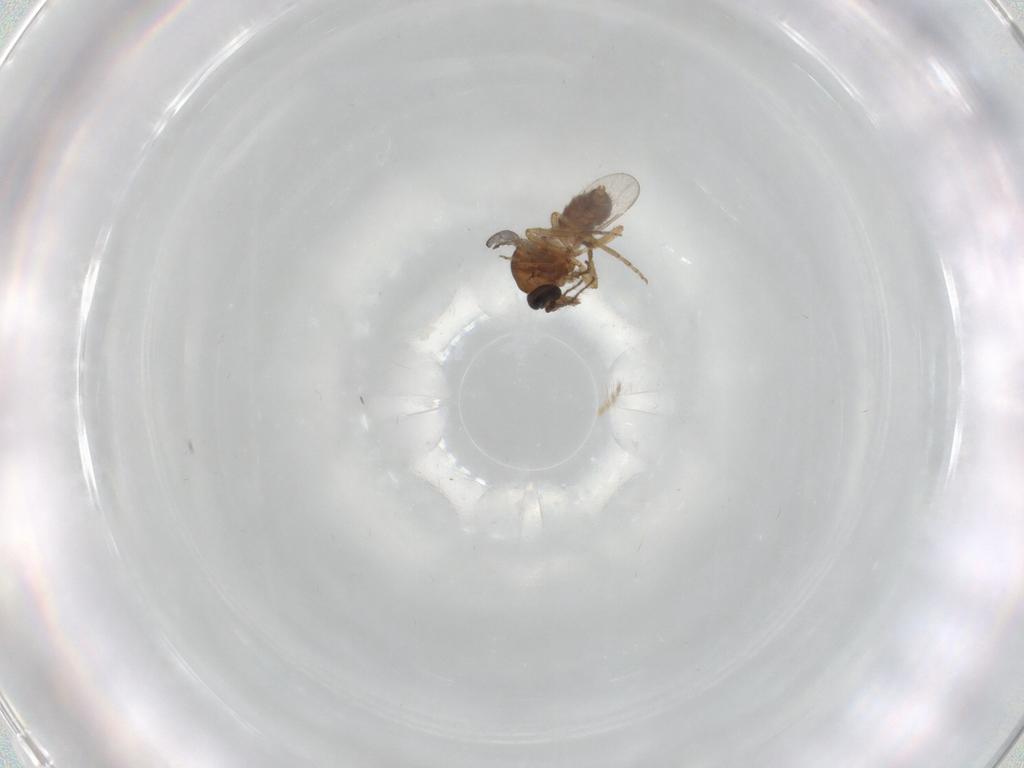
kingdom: Animalia
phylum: Arthropoda
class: Insecta
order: Diptera
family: Ceratopogonidae
